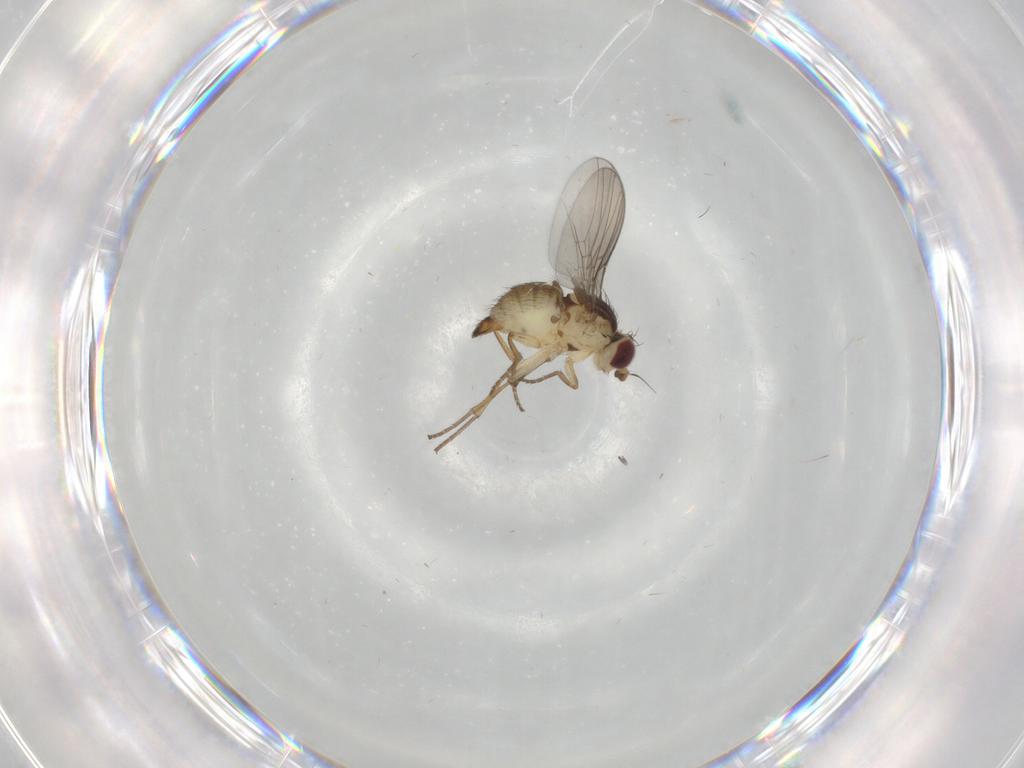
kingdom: Animalia
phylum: Arthropoda
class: Insecta
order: Diptera
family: Agromyzidae
